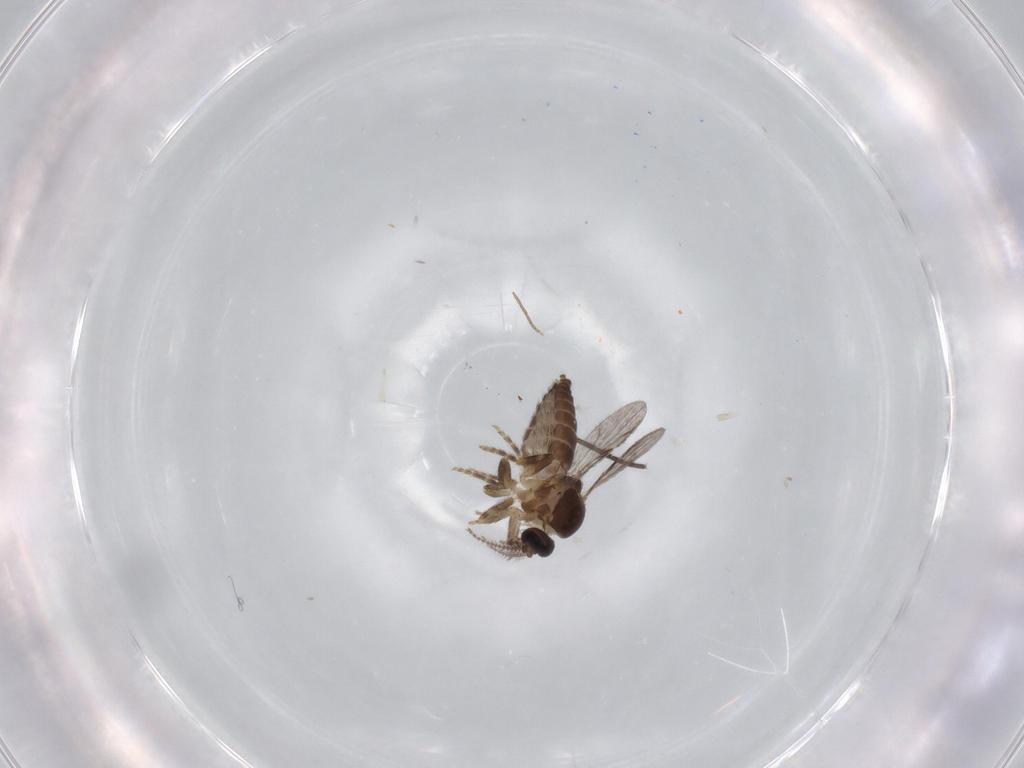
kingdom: Animalia
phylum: Arthropoda
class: Insecta
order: Diptera
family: Ceratopogonidae
